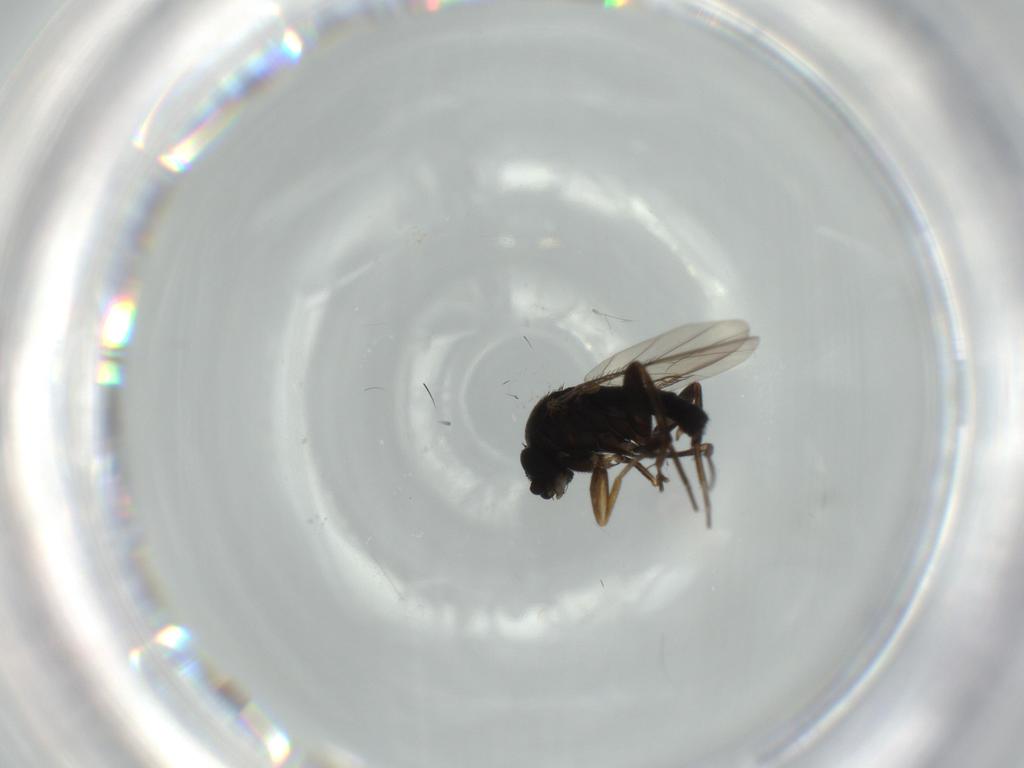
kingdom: Animalia
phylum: Arthropoda
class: Insecta
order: Diptera
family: Phoridae
